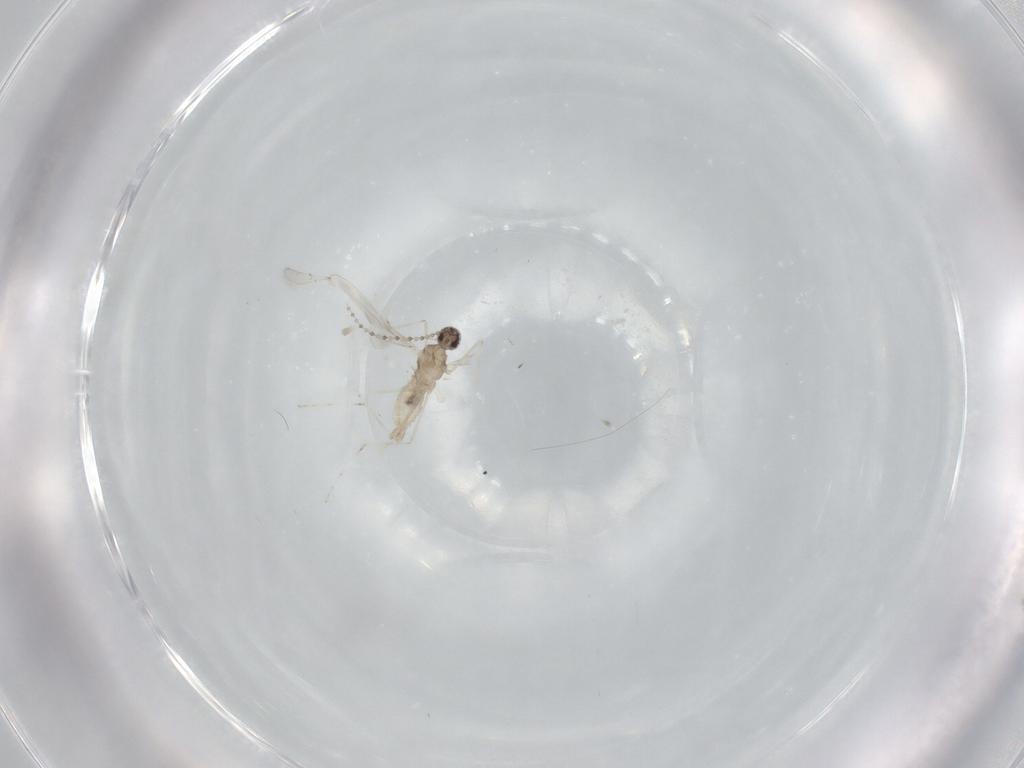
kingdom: Animalia
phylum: Arthropoda
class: Insecta
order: Diptera
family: Cecidomyiidae
